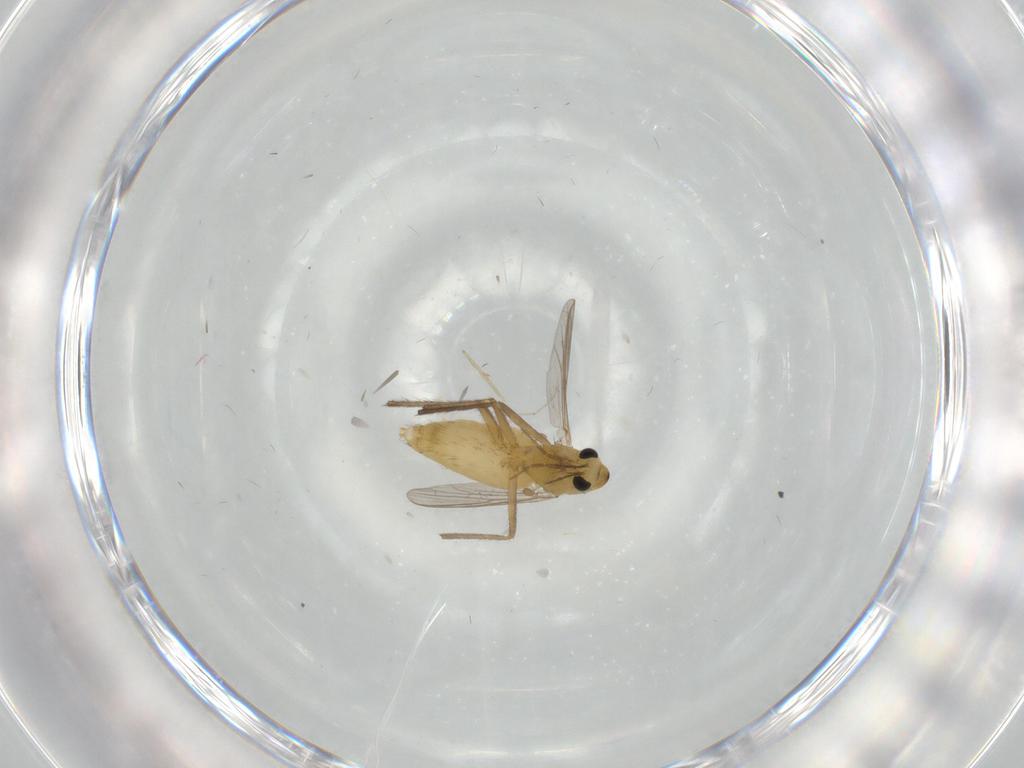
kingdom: Animalia
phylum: Arthropoda
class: Insecta
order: Diptera
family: Chironomidae
